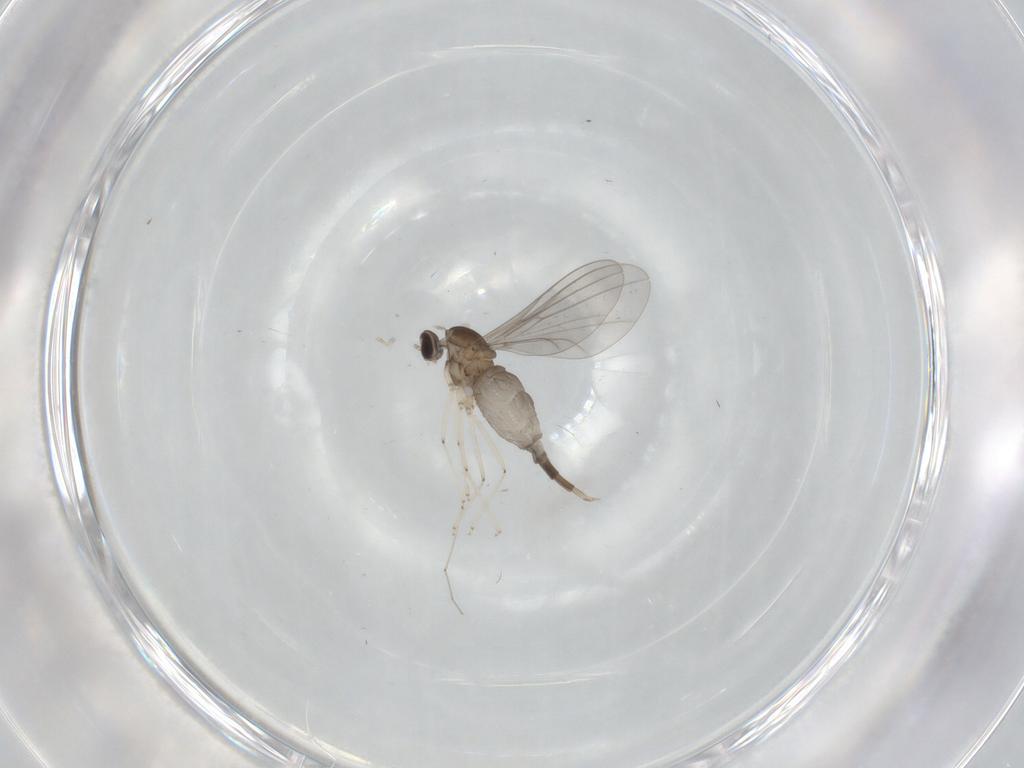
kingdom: Animalia
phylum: Arthropoda
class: Insecta
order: Diptera
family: Cecidomyiidae
